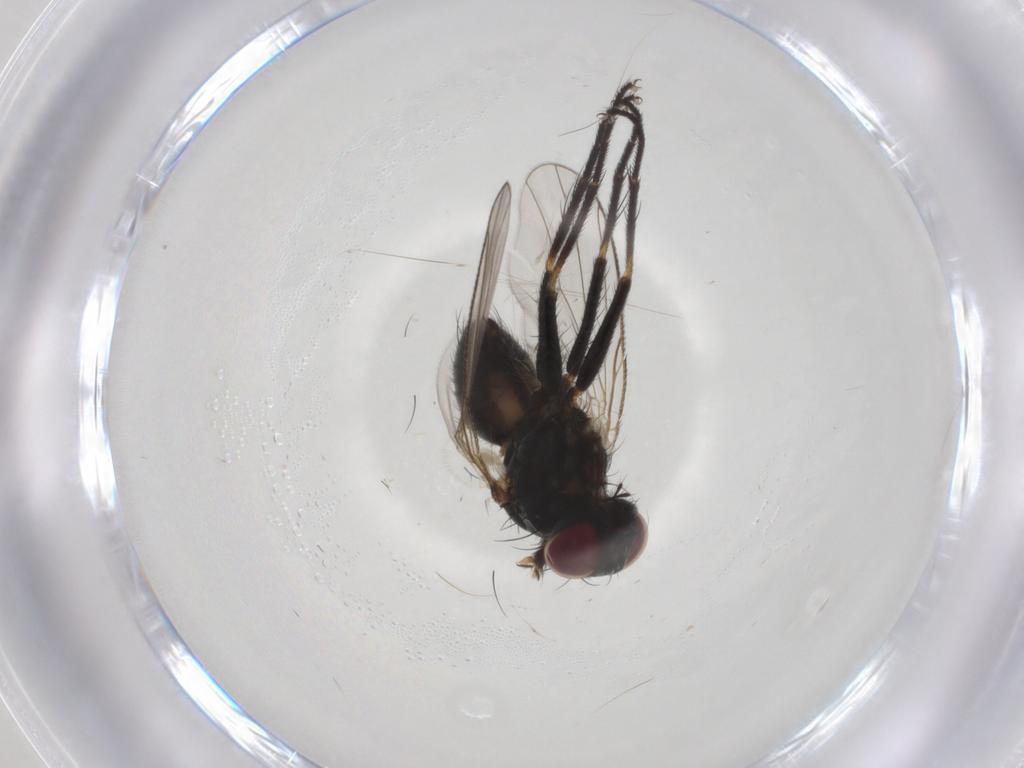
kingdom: Animalia
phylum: Arthropoda
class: Insecta
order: Diptera
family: Muscidae
